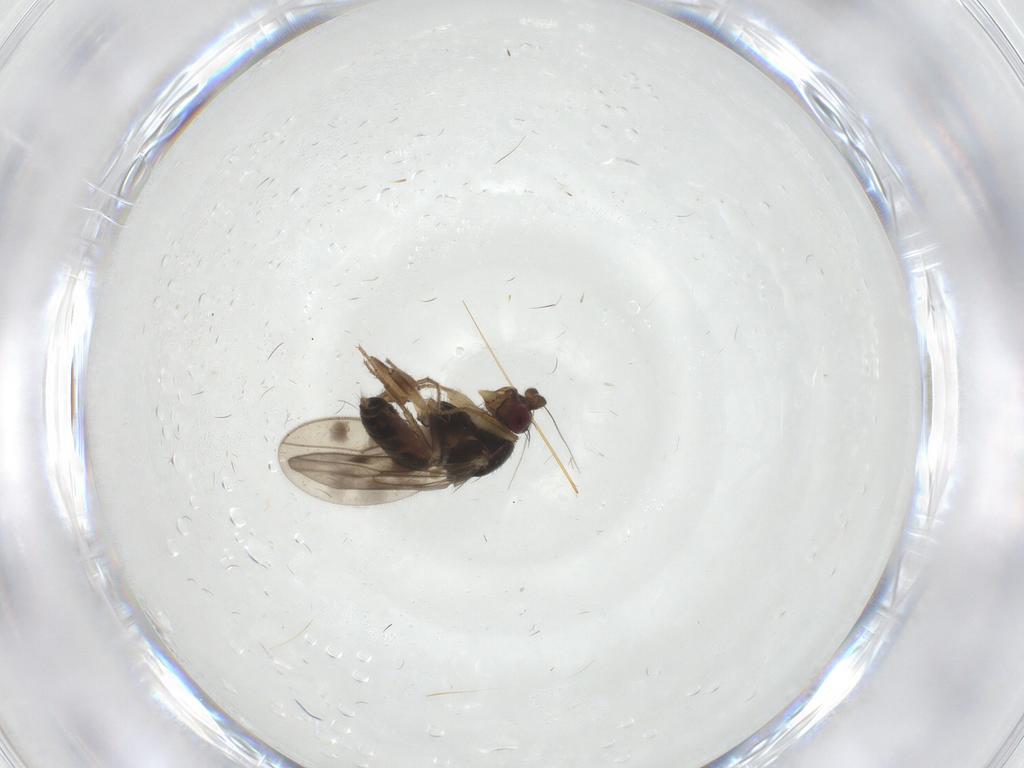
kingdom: Animalia
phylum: Arthropoda
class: Insecta
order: Diptera
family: Sphaeroceridae
